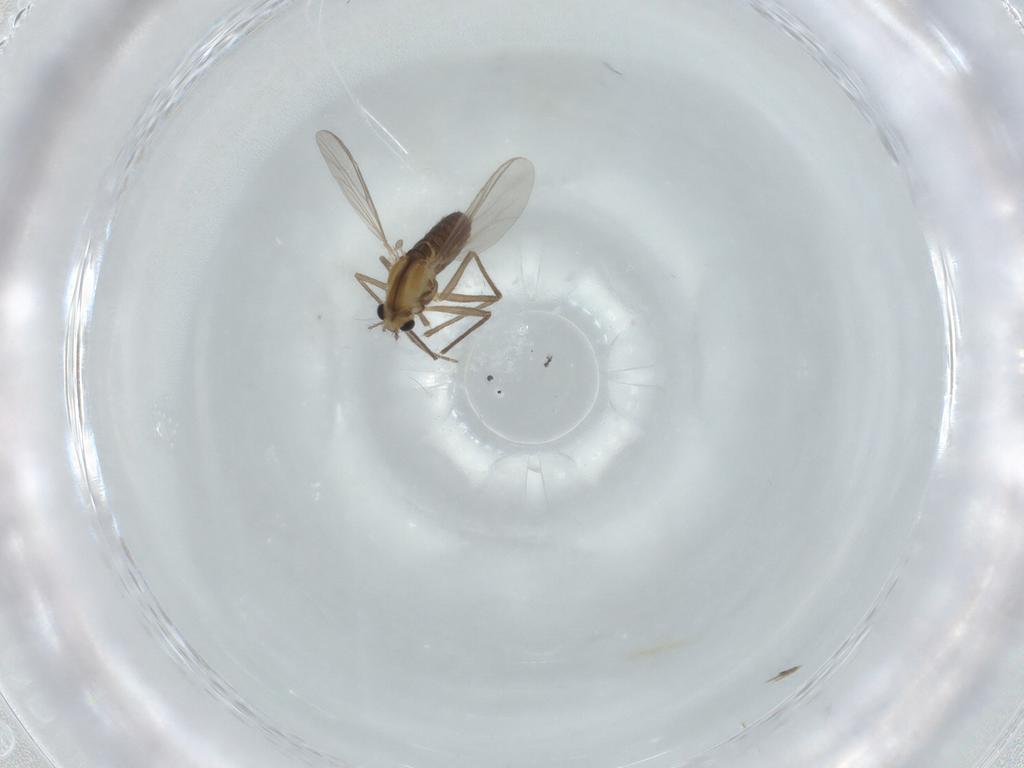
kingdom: Animalia
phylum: Arthropoda
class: Insecta
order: Diptera
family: Chironomidae
